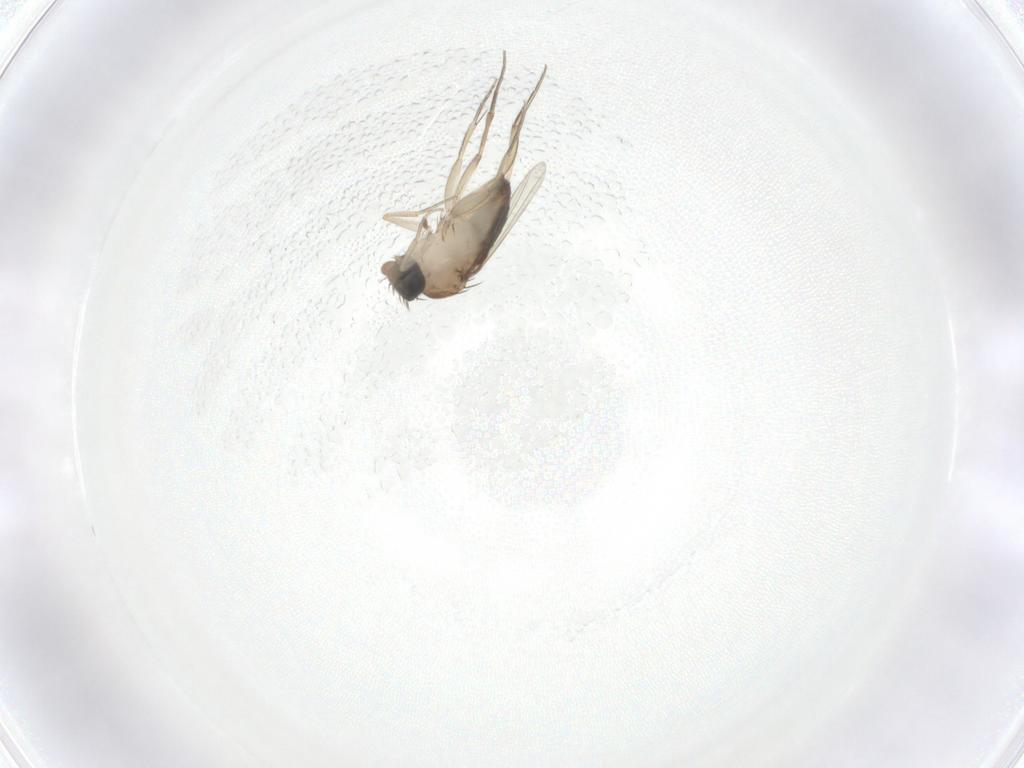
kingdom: Animalia
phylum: Arthropoda
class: Insecta
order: Diptera
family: Phoridae
